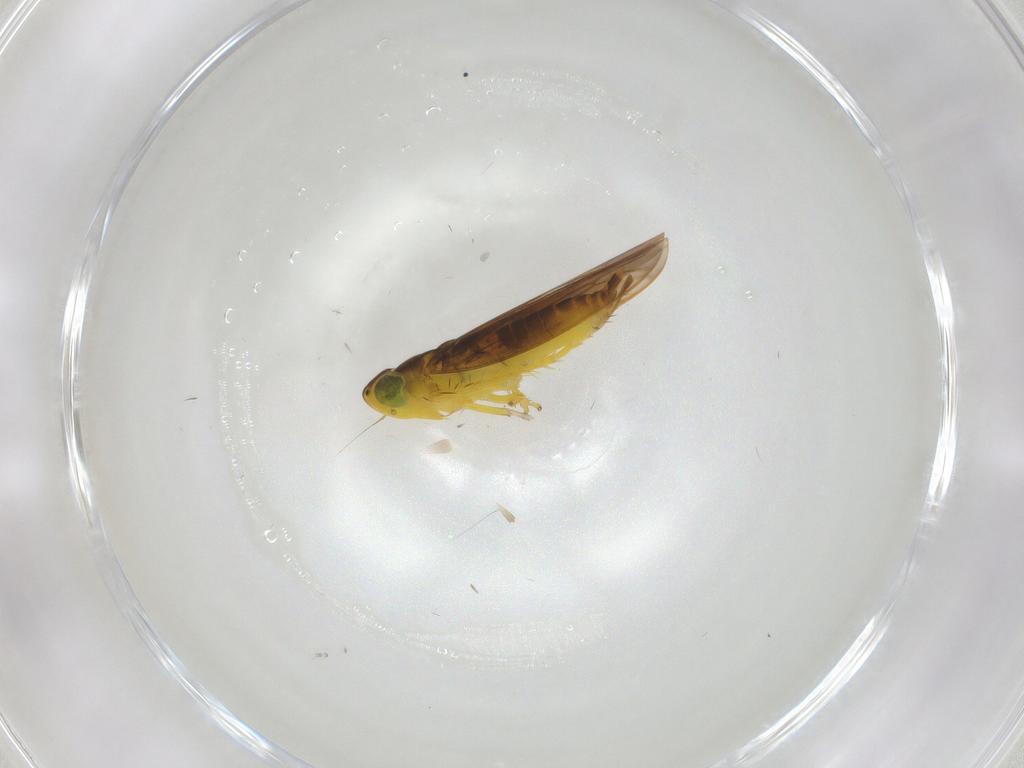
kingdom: Animalia
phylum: Arthropoda
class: Insecta
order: Hemiptera
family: Cicadellidae
